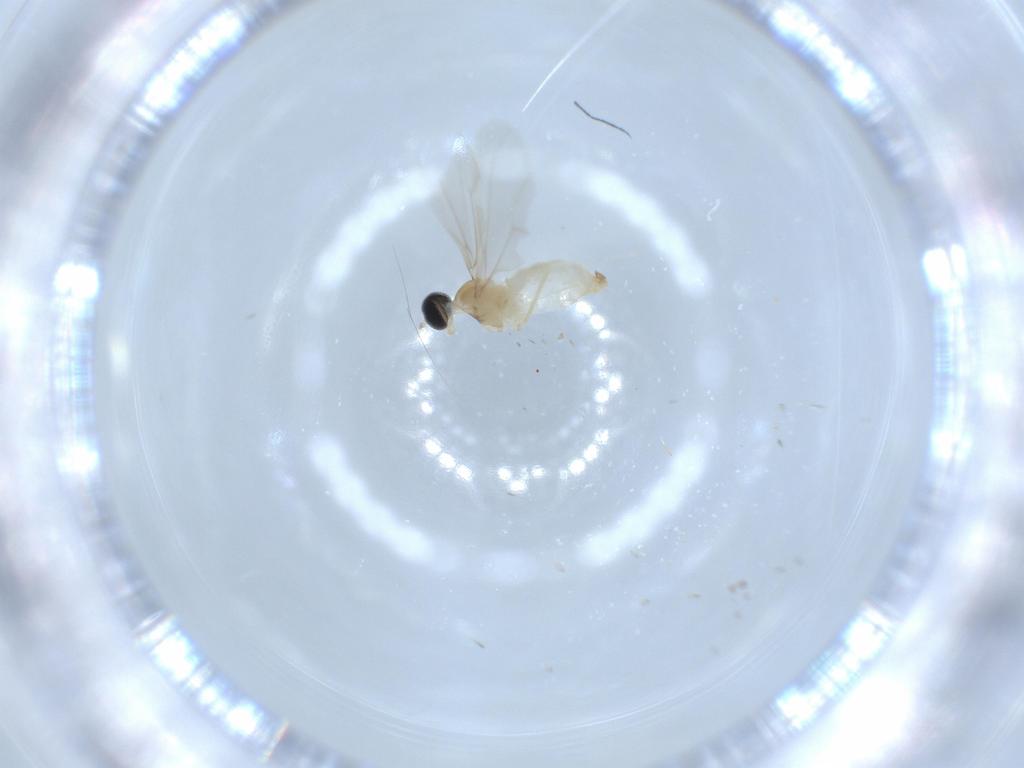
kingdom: Animalia
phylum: Arthropoda
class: Insecta
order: Diptera
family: Cecidomyiidae
